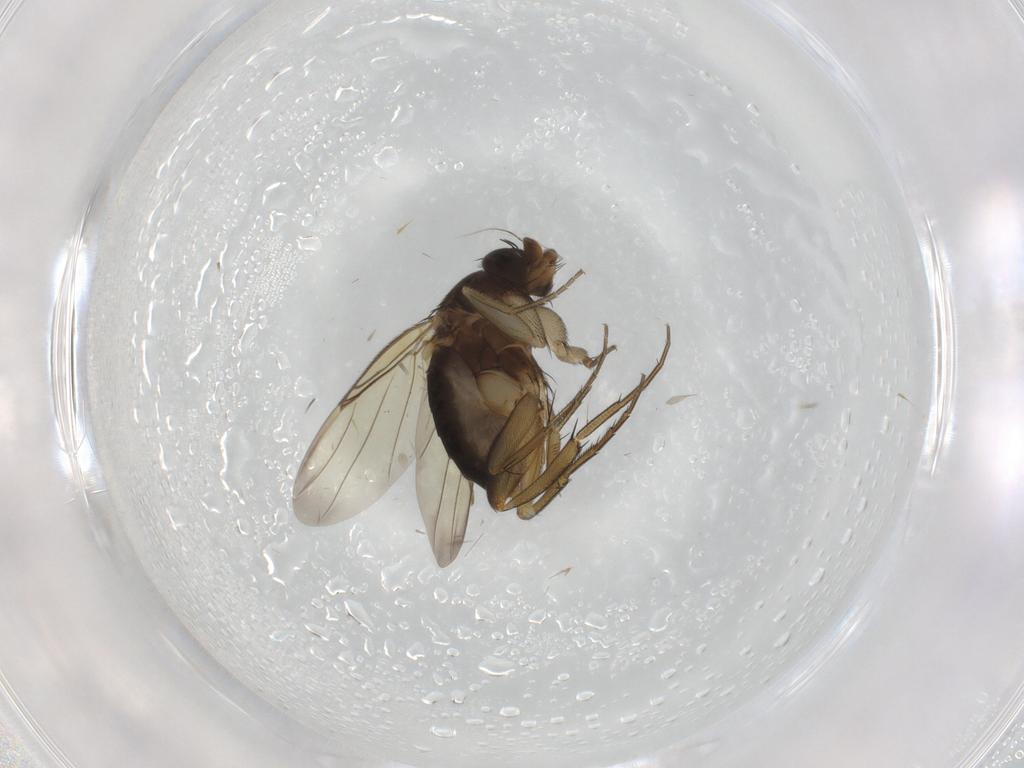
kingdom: Animalia
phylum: Arthropoda
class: Insecta
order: Diptera
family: Phoridae
